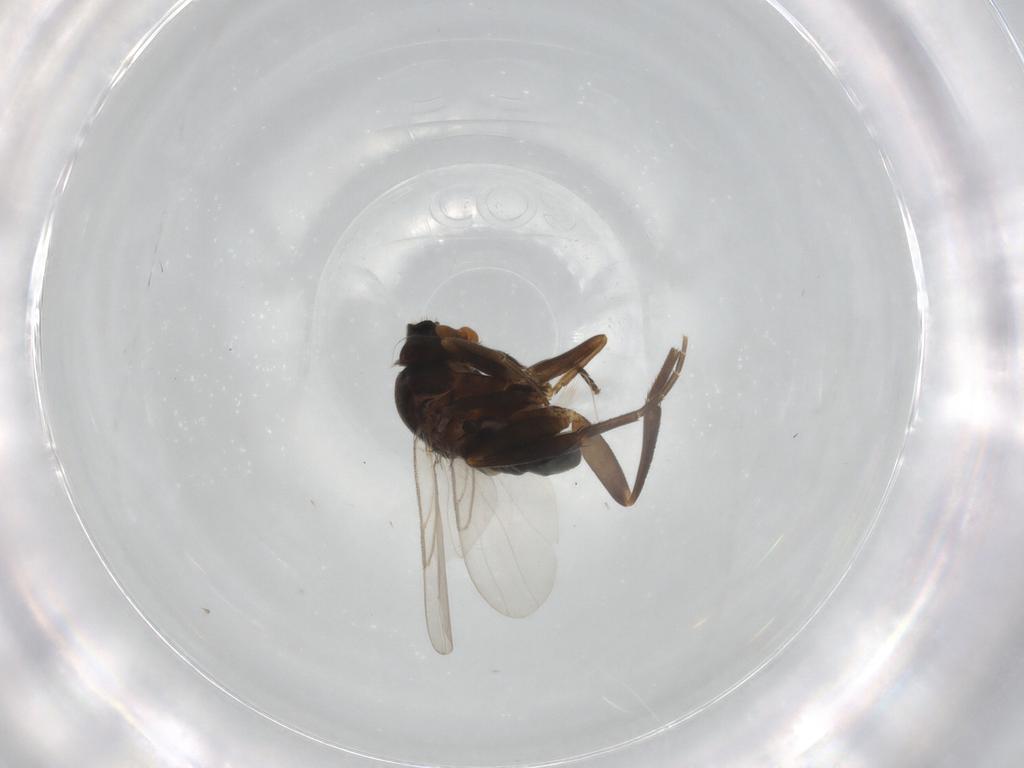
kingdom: Animalia
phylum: Arthropoda
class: Insecta
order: Diptera
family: Phoridae
